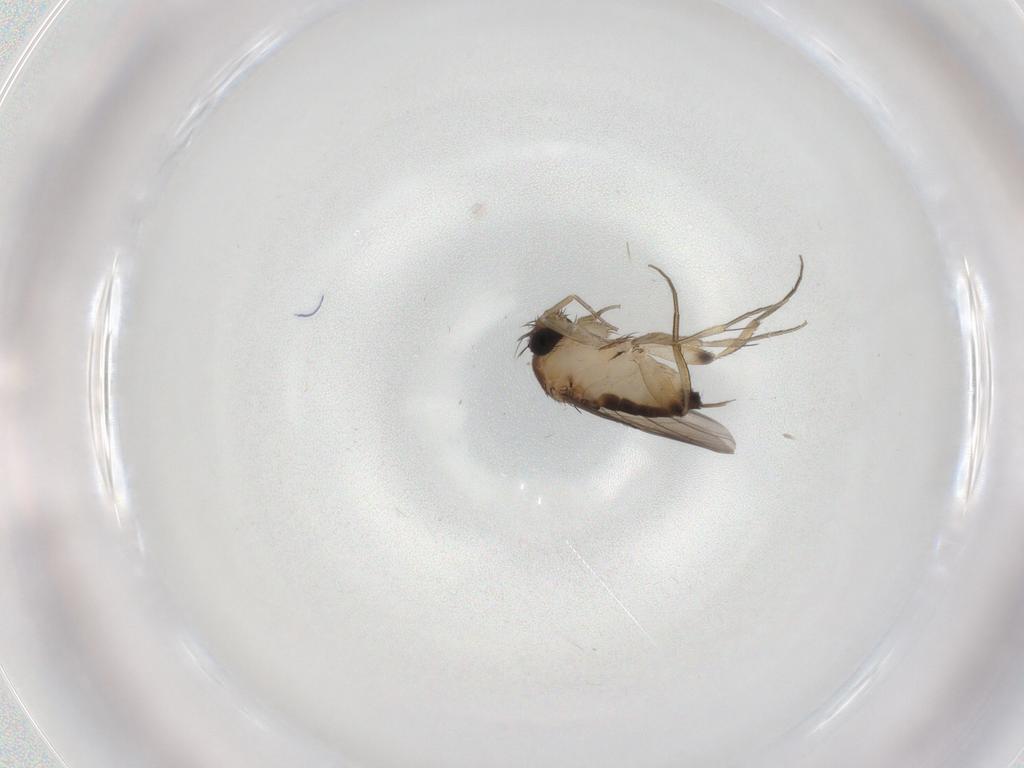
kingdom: Animalia
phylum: Arthropoda
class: Insecta
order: Diptera
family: Phoridae
